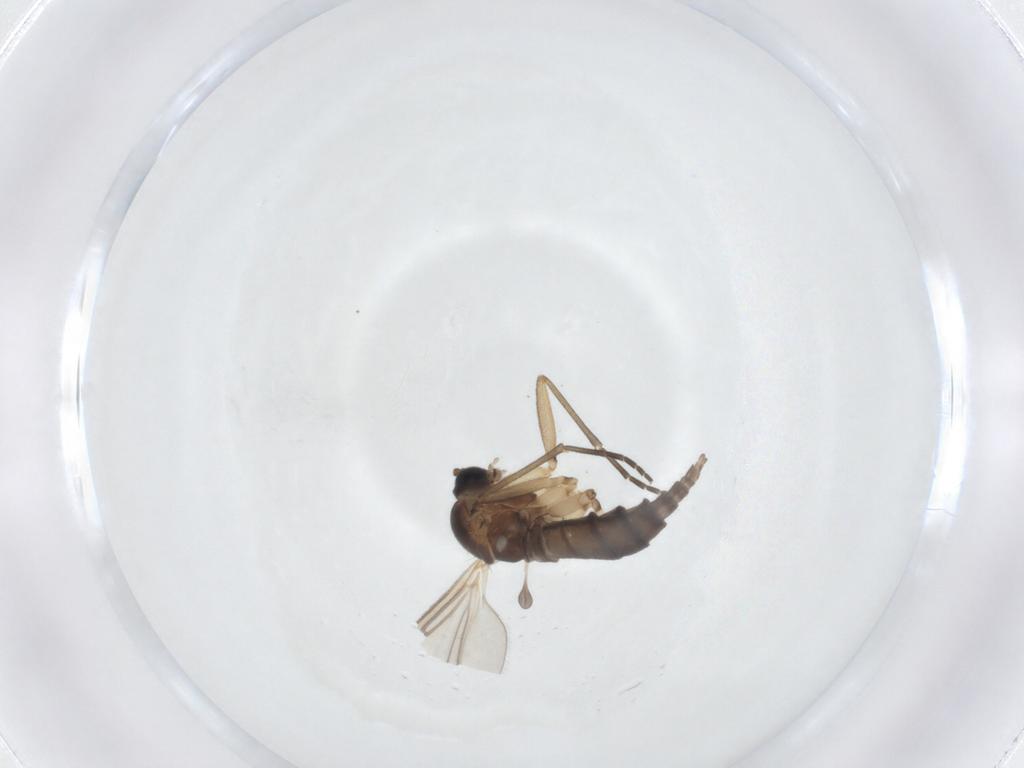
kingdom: Animalia
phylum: Arthropoda
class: Insecta
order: Diptera
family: Sciaridae
